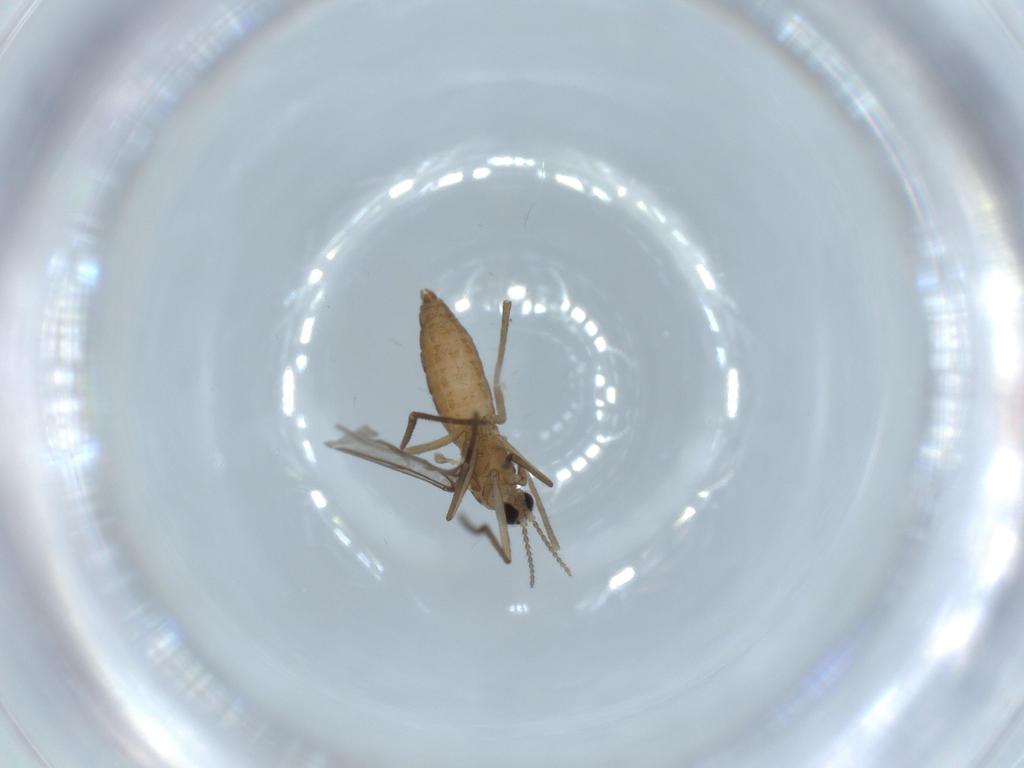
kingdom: Animalia
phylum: Arthropoda
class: Insecta
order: Diptera
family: Cecidomyiidae
